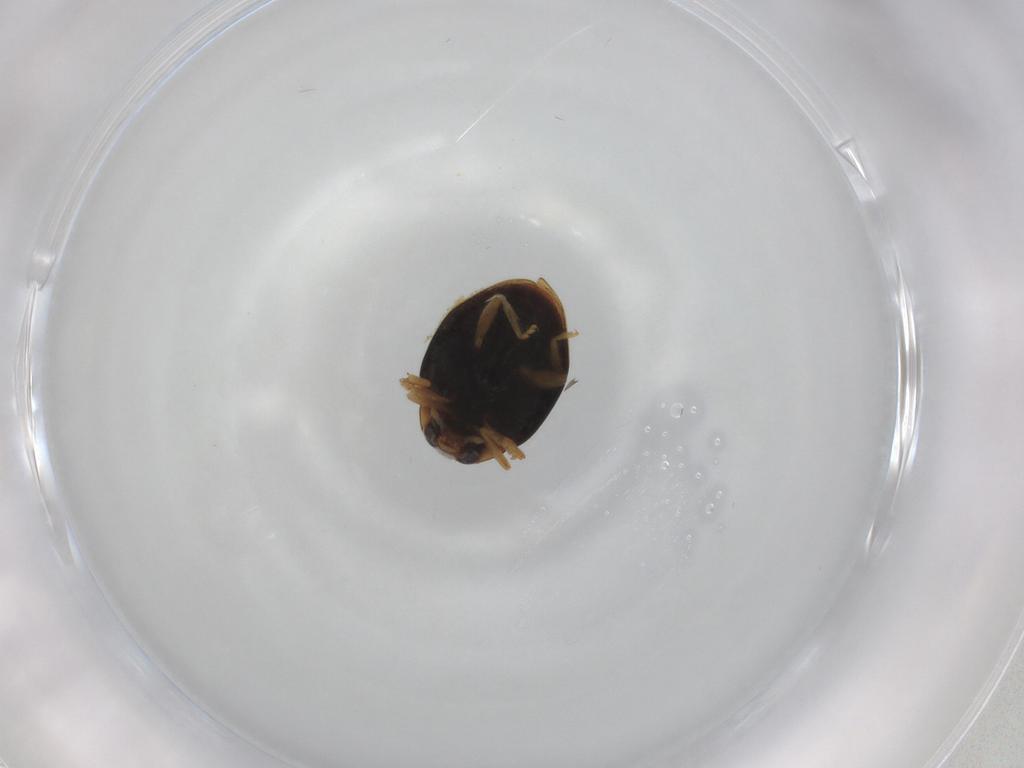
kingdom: Animalia
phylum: Arthropoda
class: Insecta
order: Coleoptera
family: Coccinellidae
